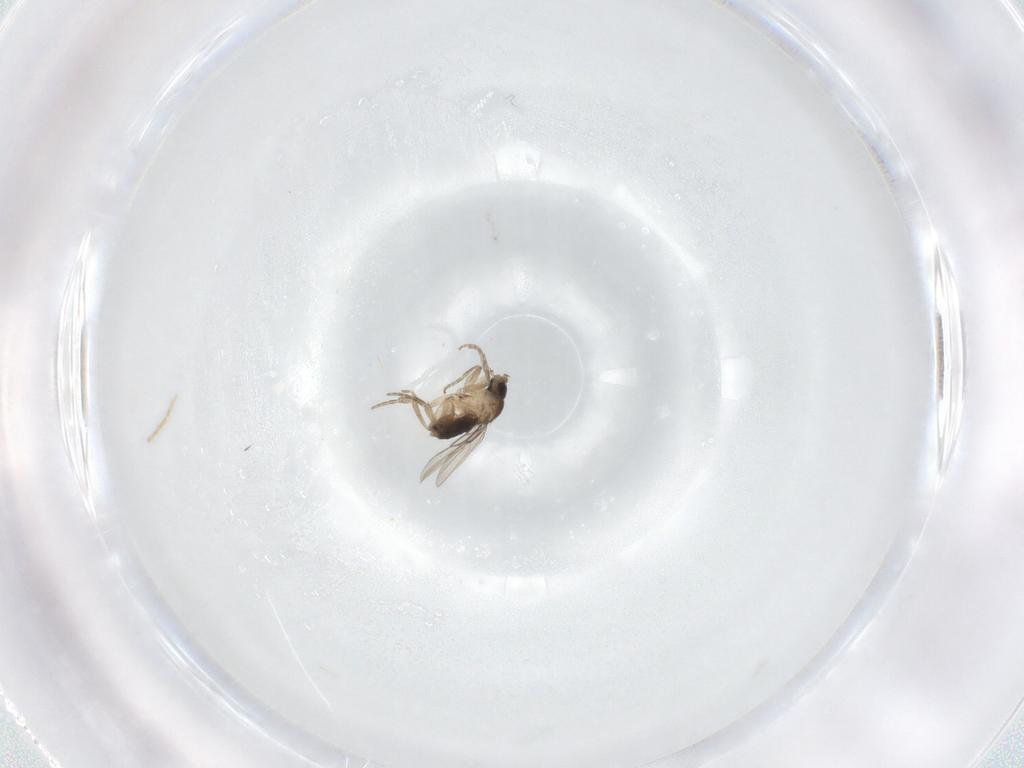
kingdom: Animalia
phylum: Arthropoda
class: Insecta
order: Diptera
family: Phoridae
